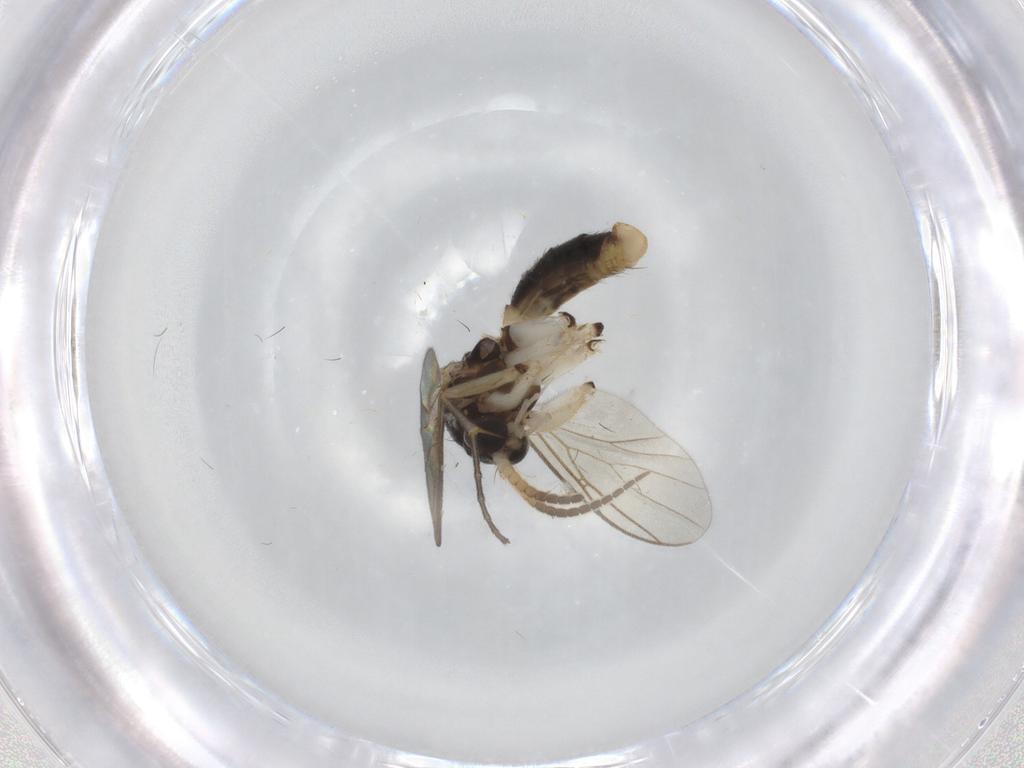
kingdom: Animalia
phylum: Arthropoda
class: Insecta
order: Diptera
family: Mycetophilidae
